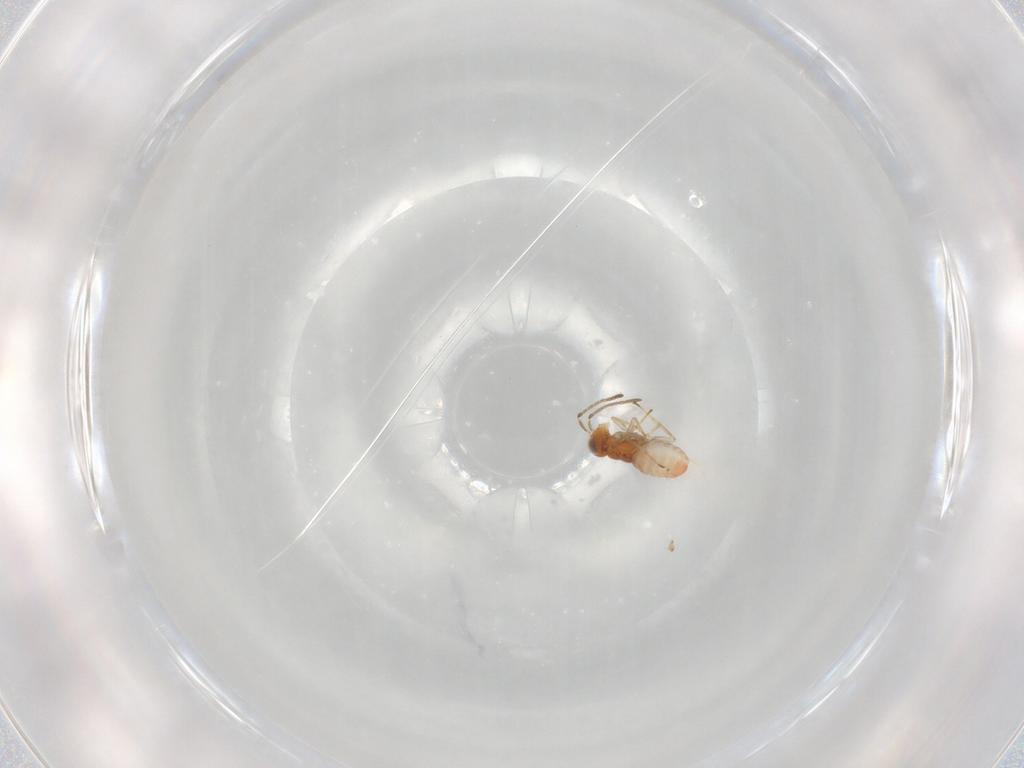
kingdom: Animalia
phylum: Arthropoda
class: Insecta
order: Hymenoptera
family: Encyrtidae
